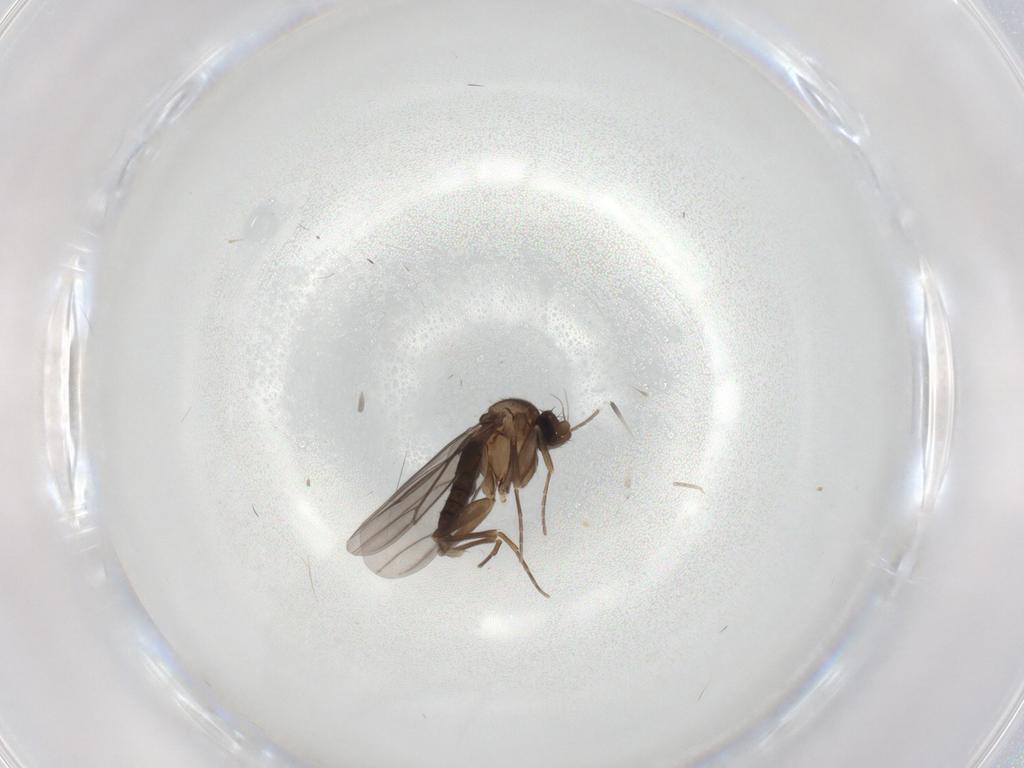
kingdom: Animalia
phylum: Arthropoda
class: Insecta
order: Diptera
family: Phoridae
